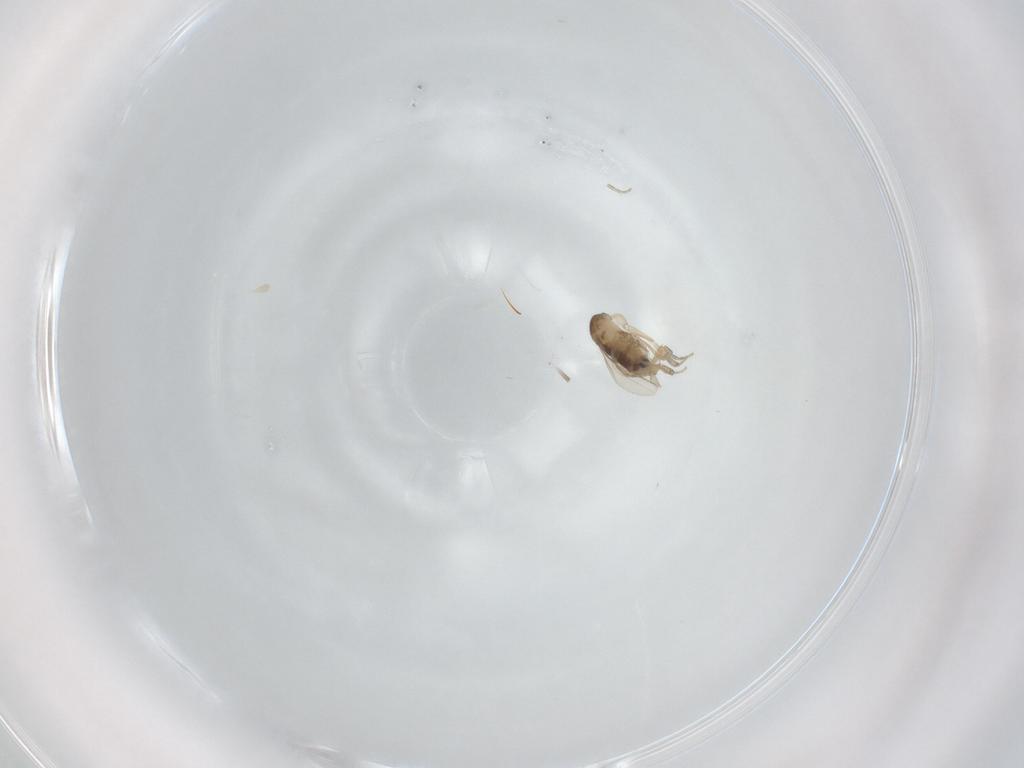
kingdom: Animalia
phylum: Arthropoda
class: Insecta
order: Diptera
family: Phoridae
